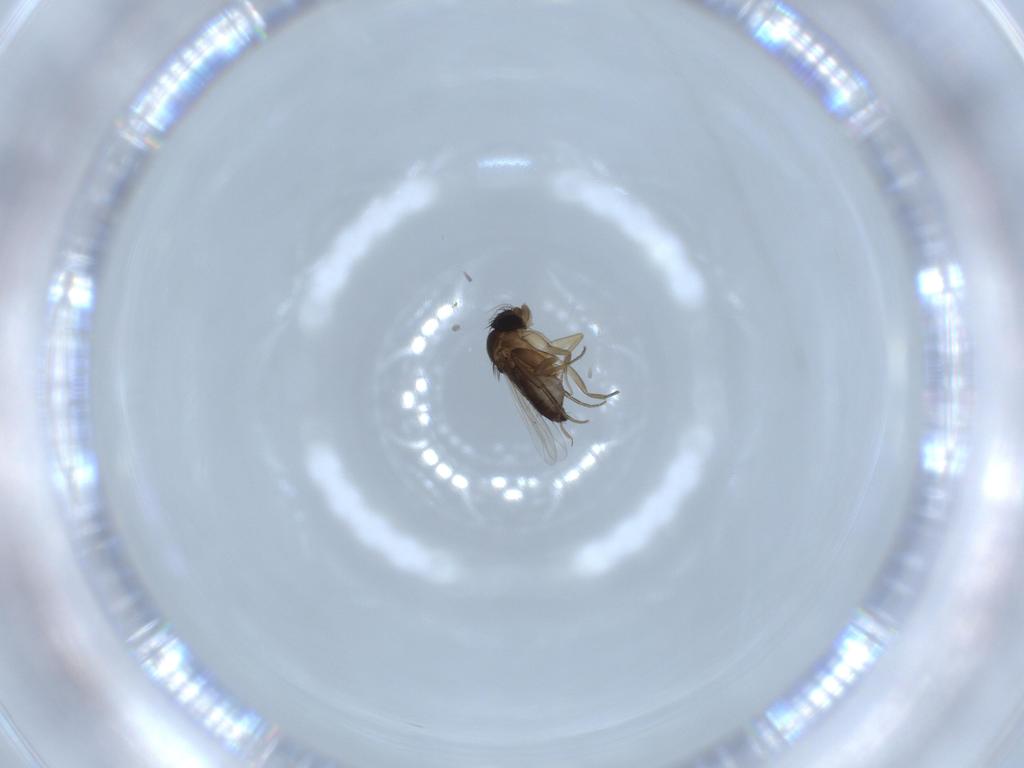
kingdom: Animalia
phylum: Arthropoda
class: Insecta
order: Diptera
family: Phoridae
